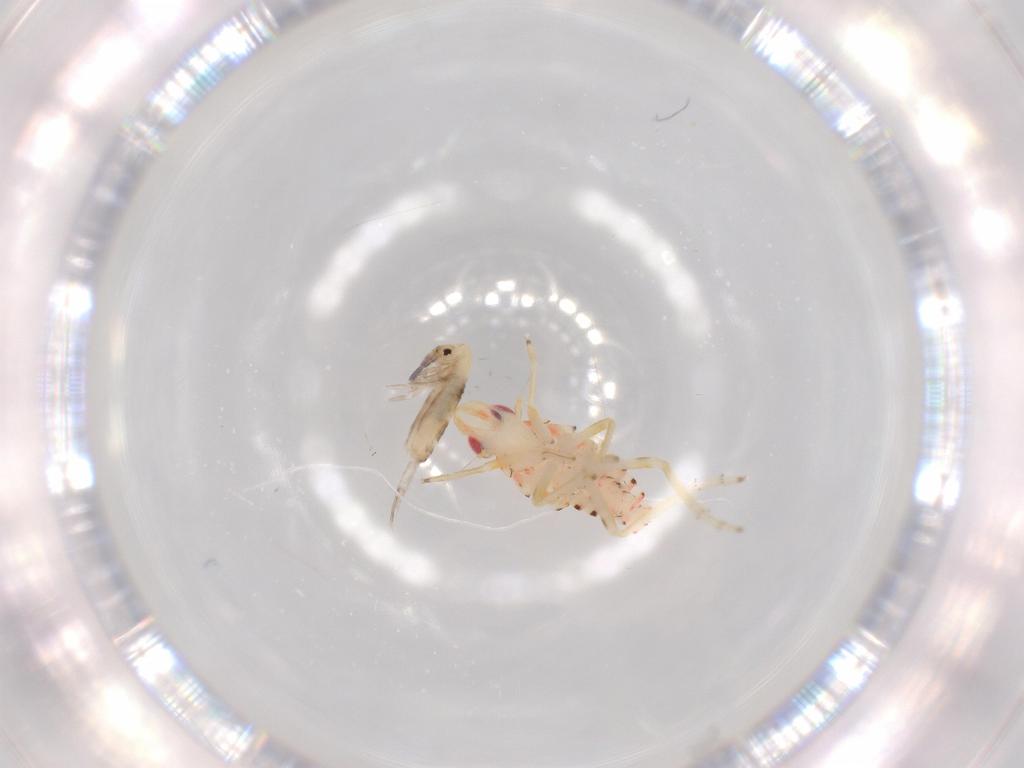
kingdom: Animalia
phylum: Arthropoda
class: Insecta
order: Hemiptera
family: Tropiduchidae
